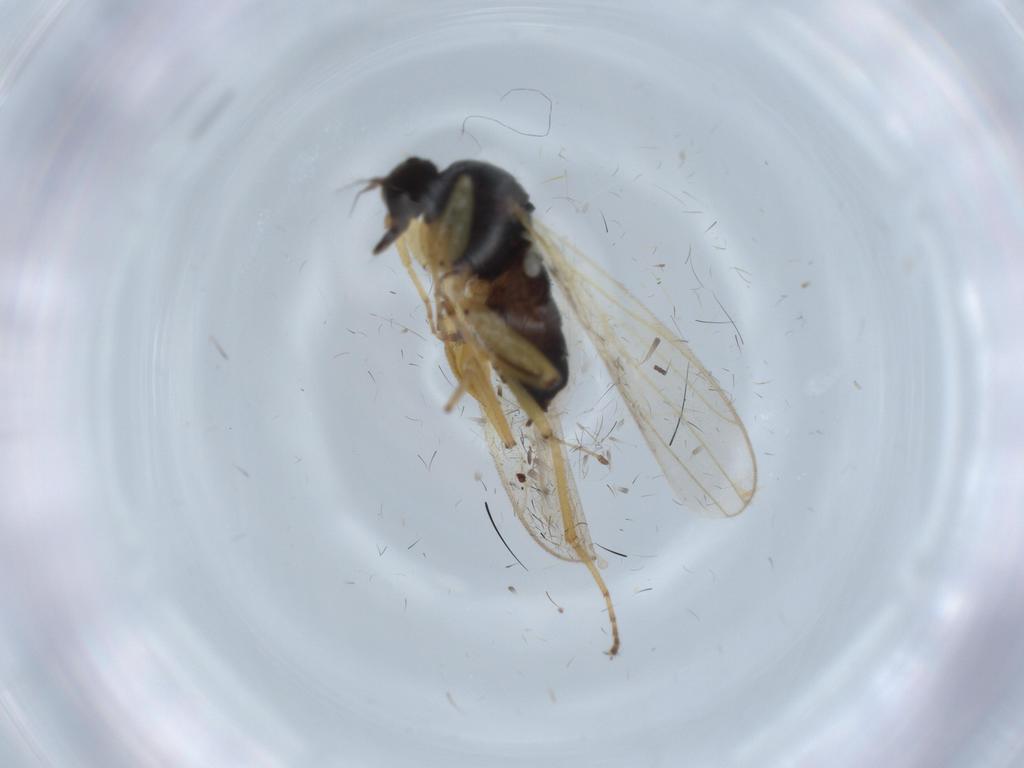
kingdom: Animalia
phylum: Arthropoda
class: Insecta
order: Diptera
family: Hybotidae
